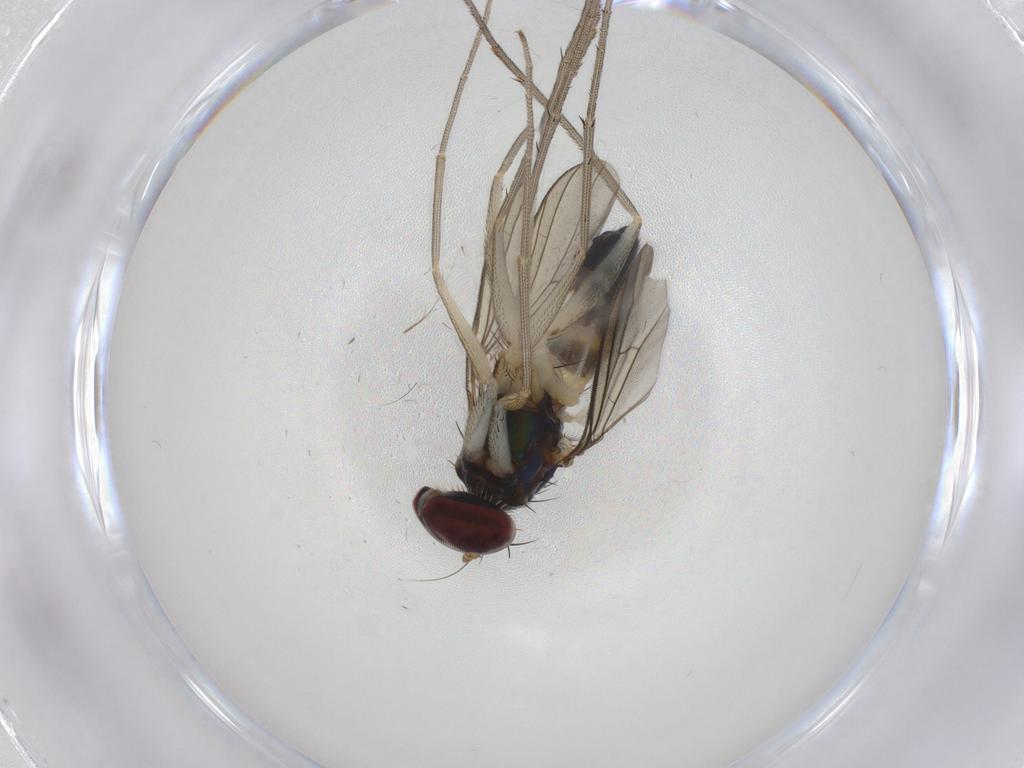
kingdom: Animalia
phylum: Arthropoda
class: Insecta
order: Diptera
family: Dolichopodidae
